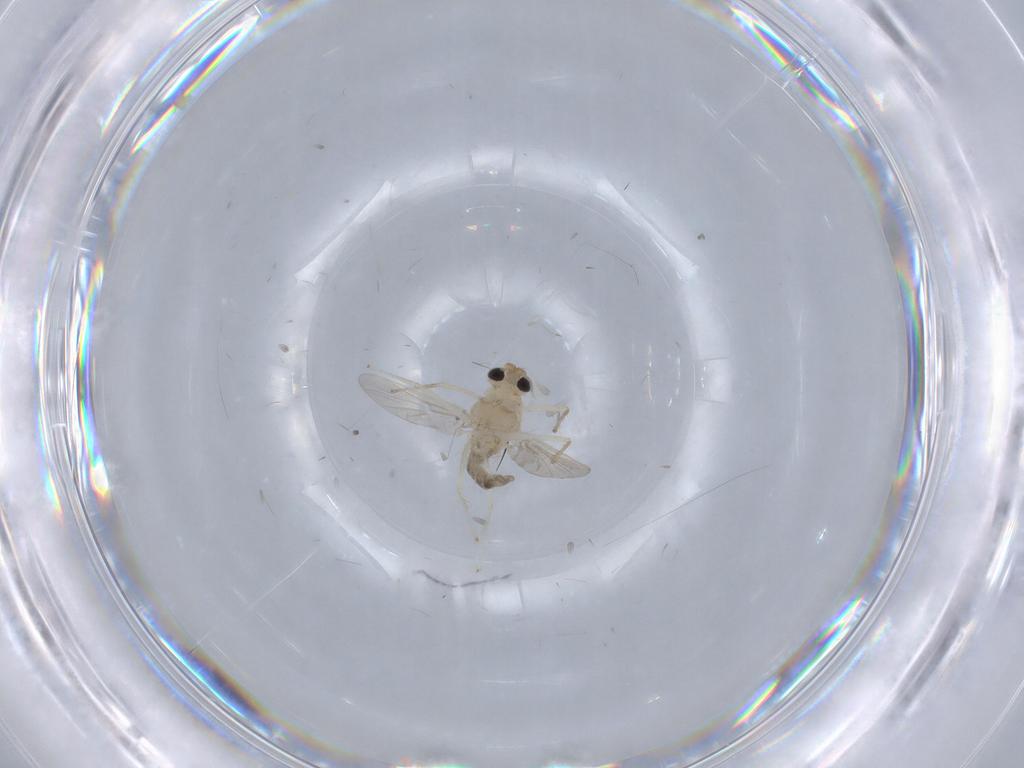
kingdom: Animalia
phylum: Arthropoda
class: Insecta
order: Diptera
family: Chironomidae
